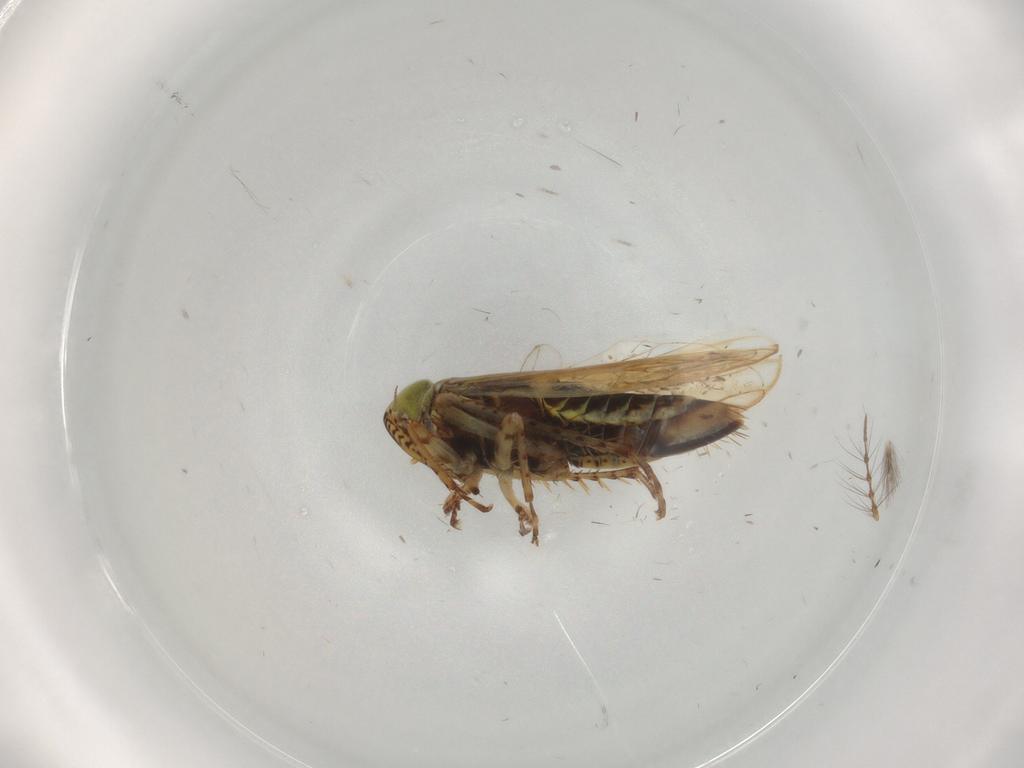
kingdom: Animalia
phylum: Arthropoda
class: Insecta
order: Hemiptera
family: Cicadellidae
